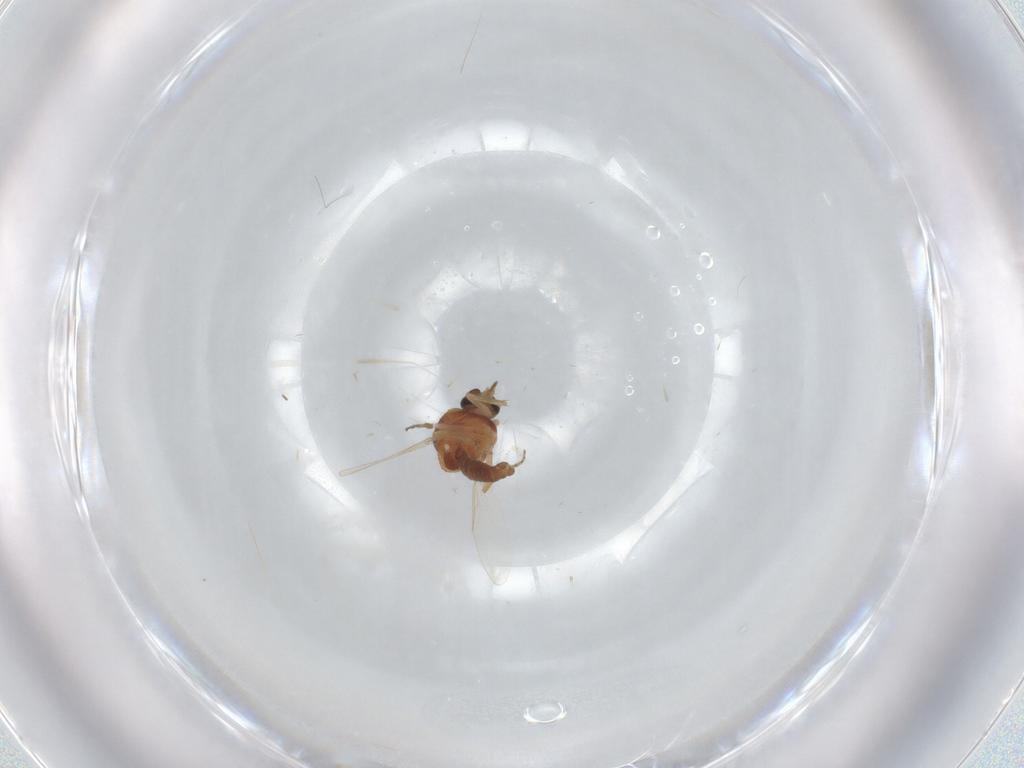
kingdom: Animalia
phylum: Arthropoda
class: Insecta
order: Diptera
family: Ceratopogonidae
